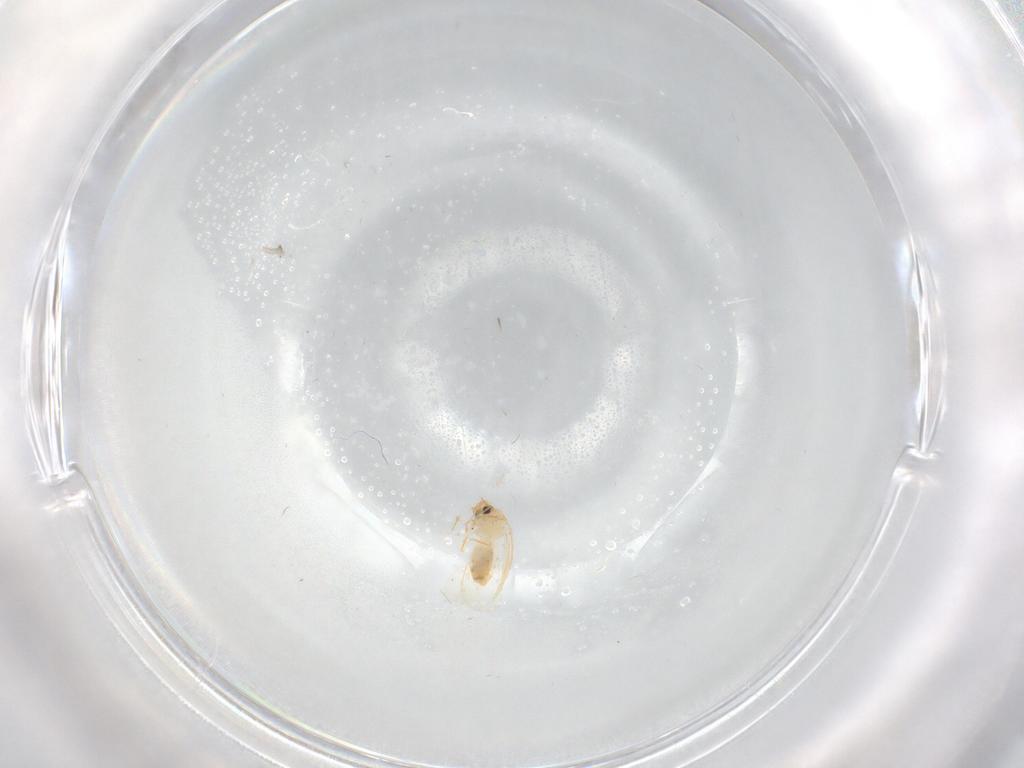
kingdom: Animalia
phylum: Arthropoda
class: Insecta
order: Hemiptera
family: Aleyrodidae
